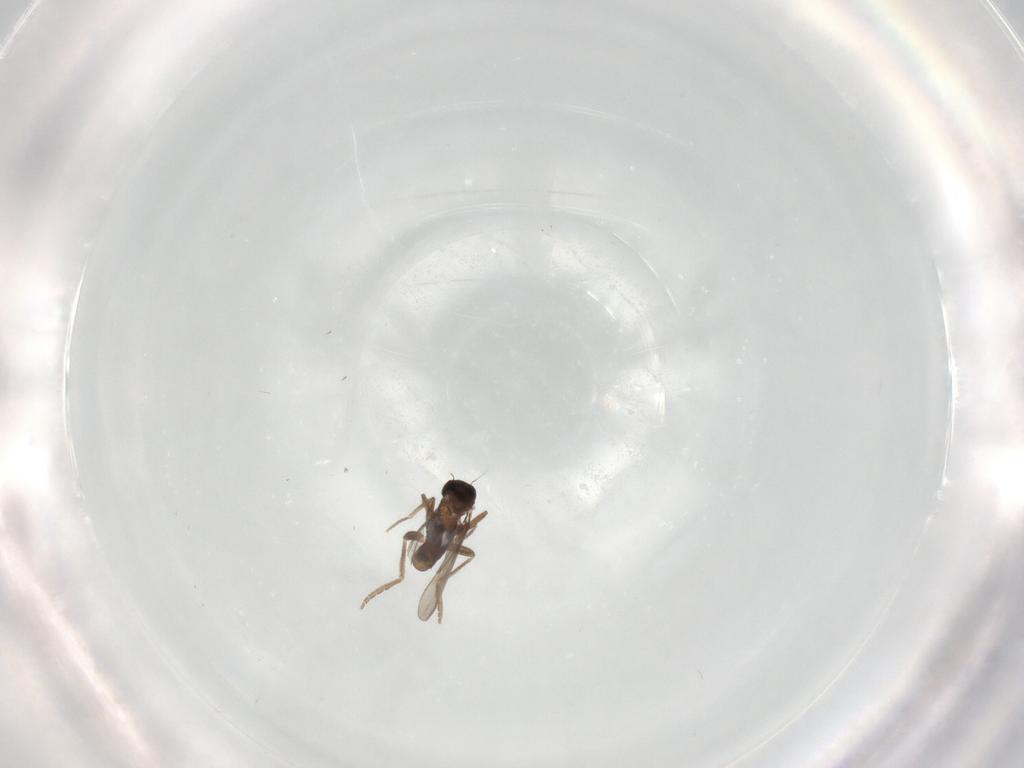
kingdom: Animalia
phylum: Arthropoda
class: Insecta
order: Diptera
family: Phoridae
